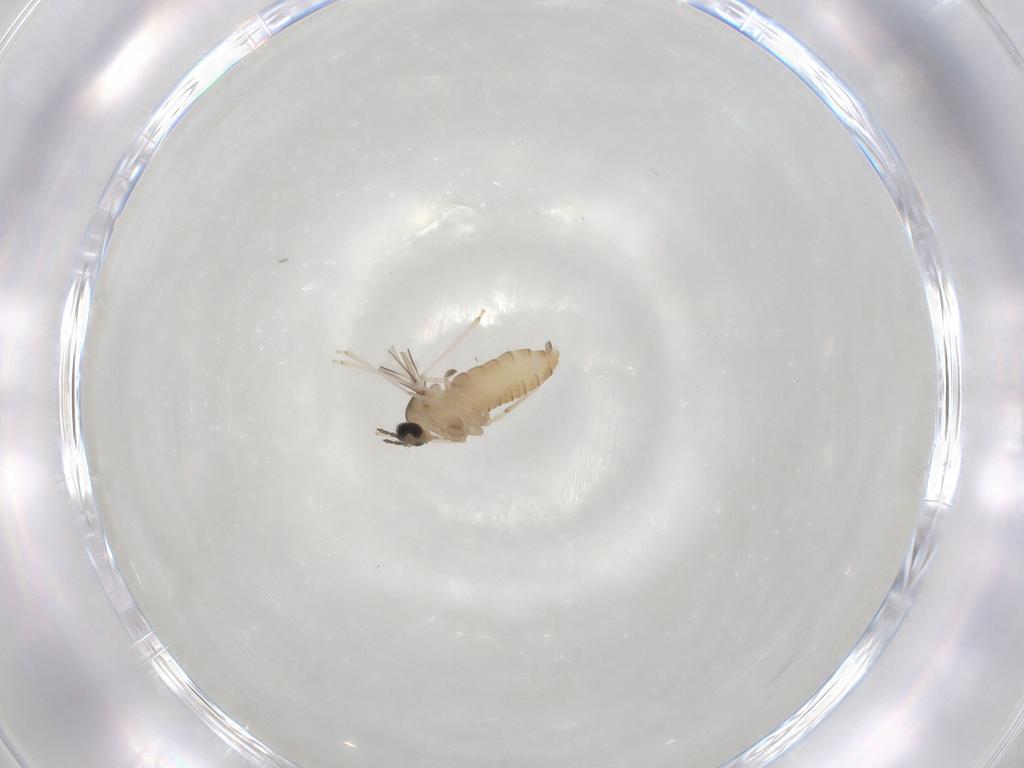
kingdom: Animalia
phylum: Arthropoda
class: Insecta
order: Diptera
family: Cecidomyiidae
